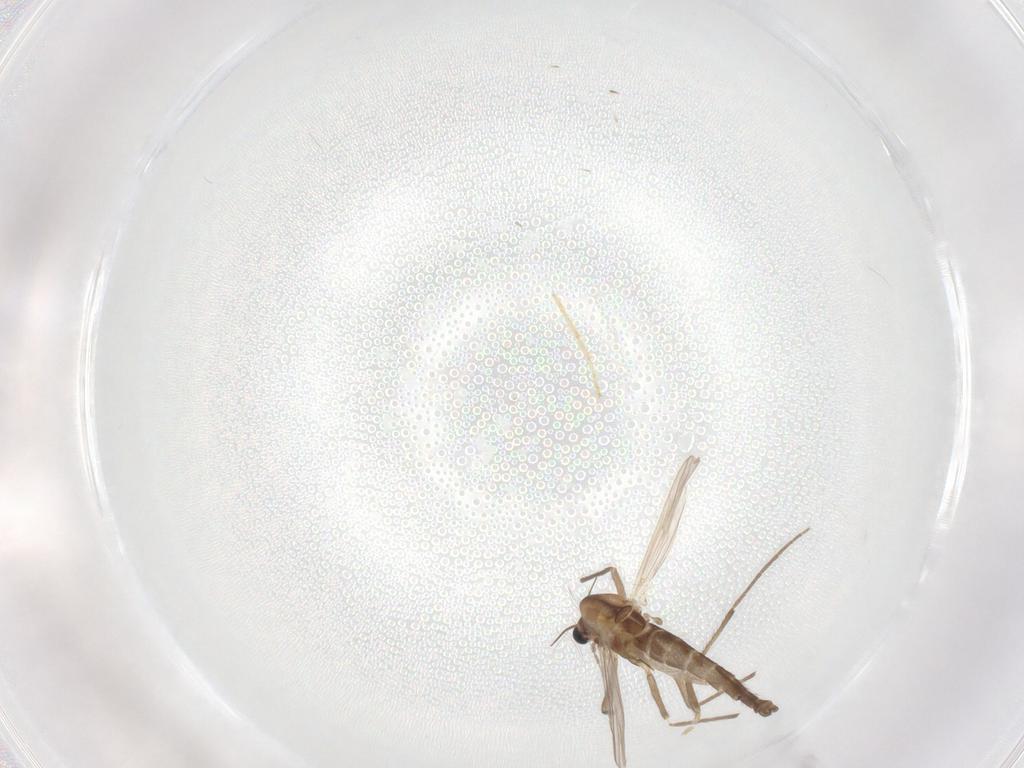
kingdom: Animalia
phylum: Arthropoda
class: Insecta
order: Diptera
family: Chironomidae
